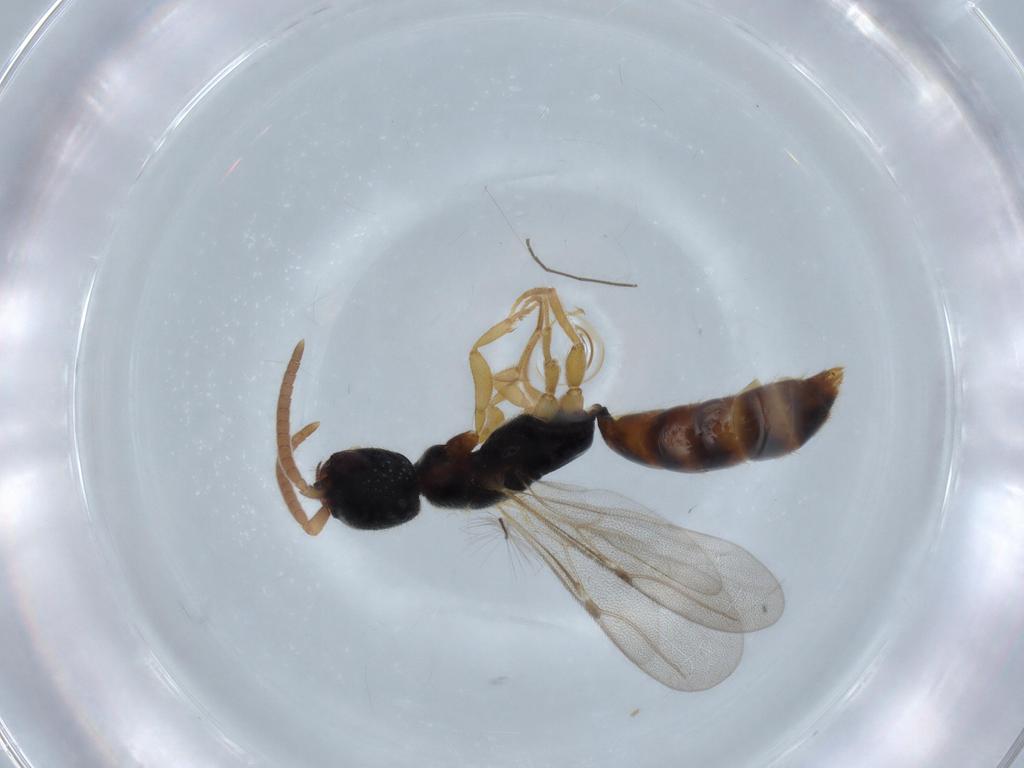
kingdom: Animalia
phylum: Arthropoda
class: Insecta
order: Hymenoptera
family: Bethylidae
